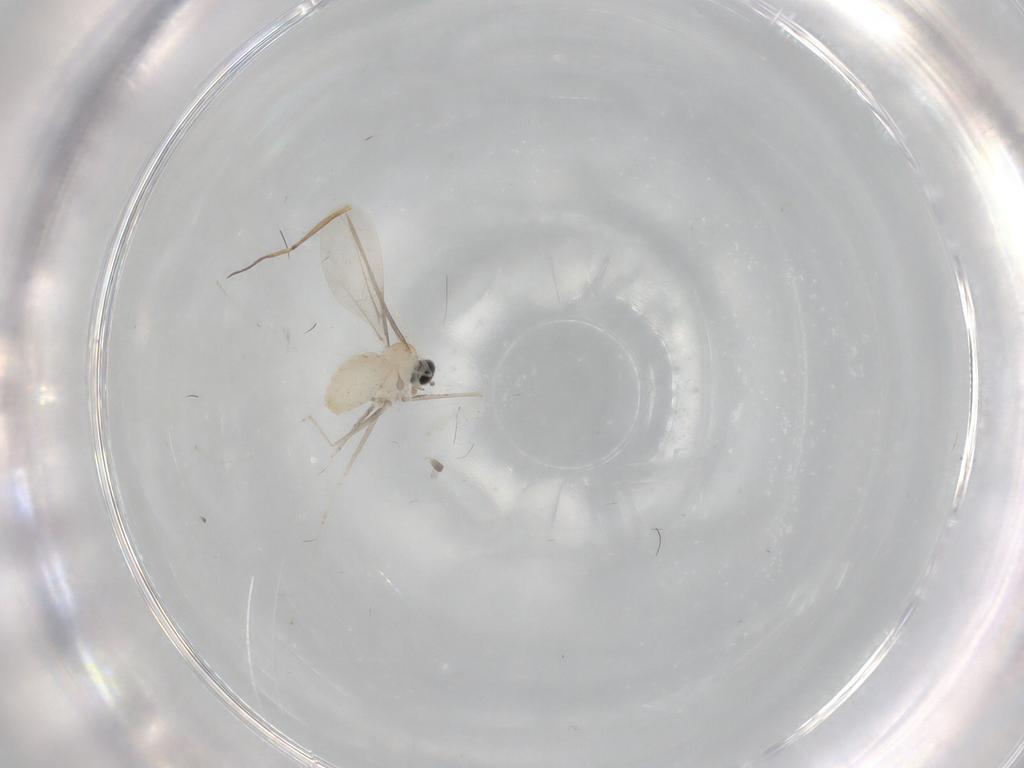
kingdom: Animalia
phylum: Arthropoda
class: Insecta
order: Diptera
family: Cecidomyiidae
